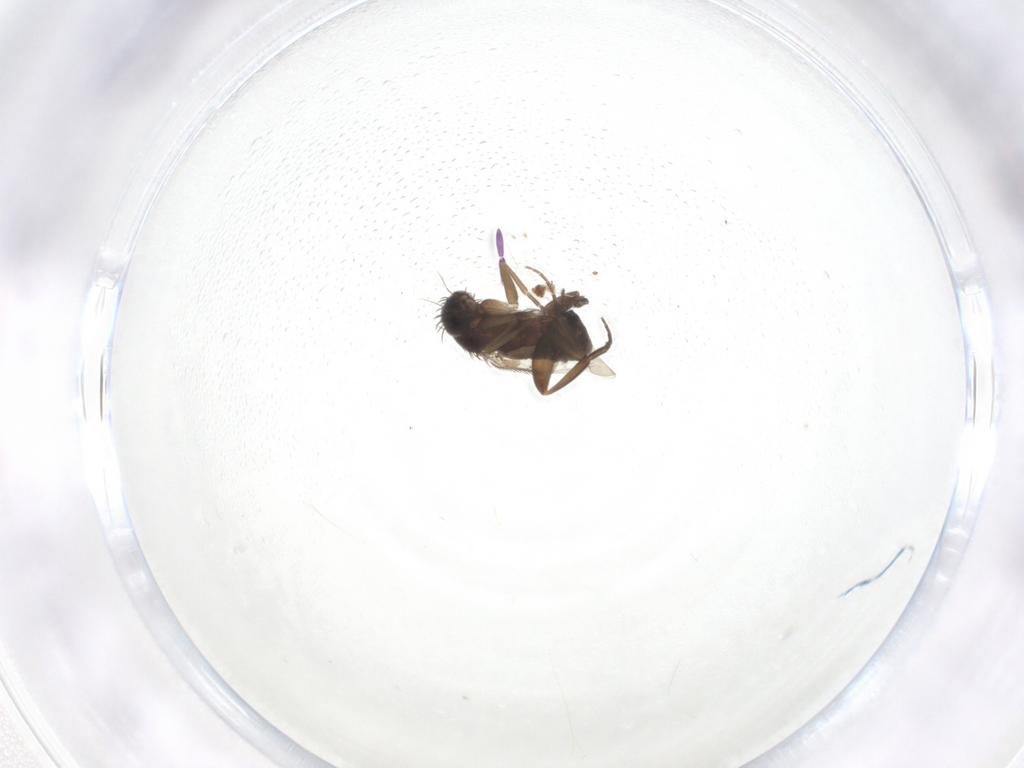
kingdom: Animalia
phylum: Arthropoda
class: Insecta
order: Diptera
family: Phoridae
